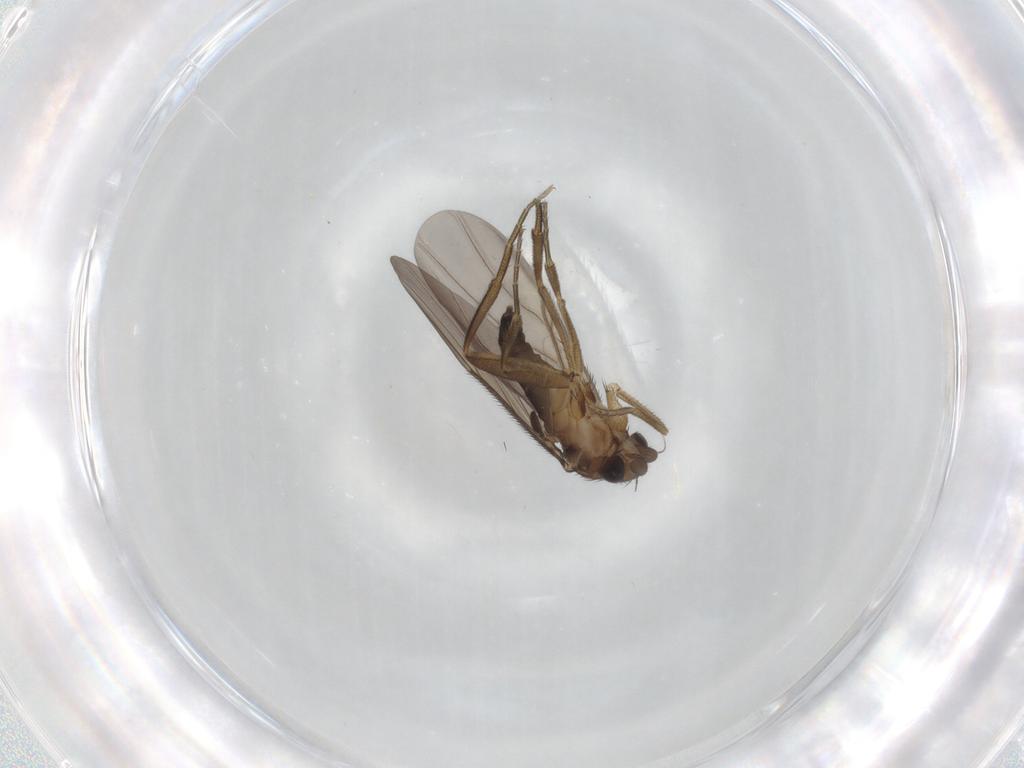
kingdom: Animalia
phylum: Arthropoda
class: Insecta
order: Diptera
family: Phoridae
